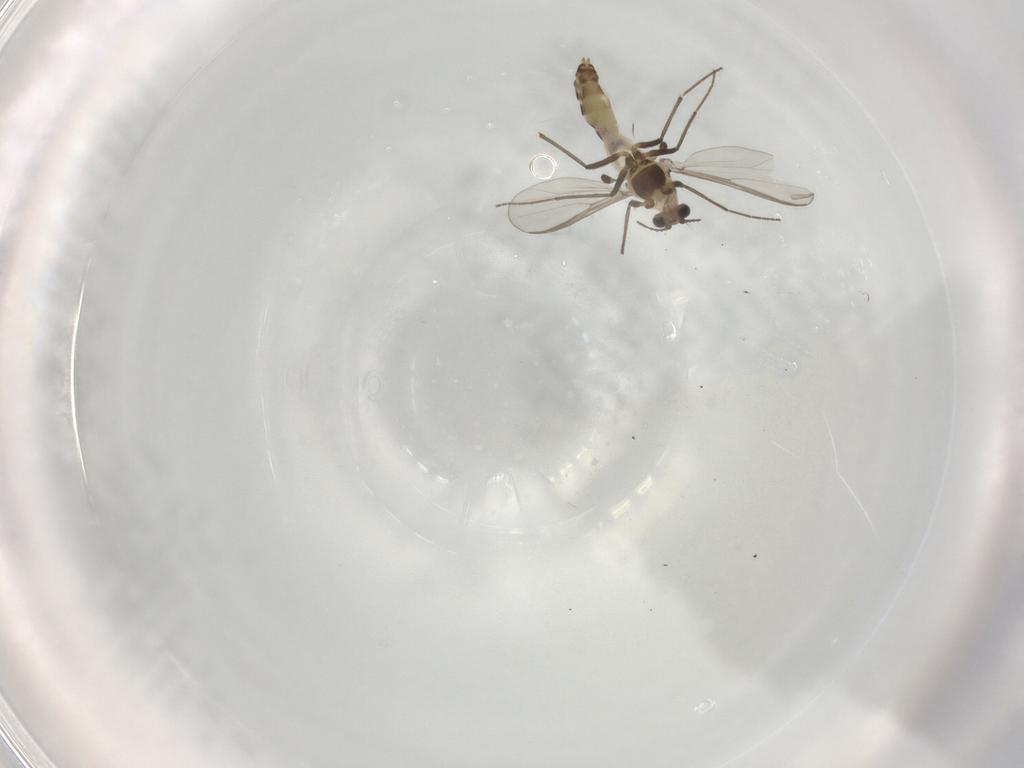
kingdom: Animalia
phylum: Arthropoda
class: Insecta
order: Diptera
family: Chironomidae
